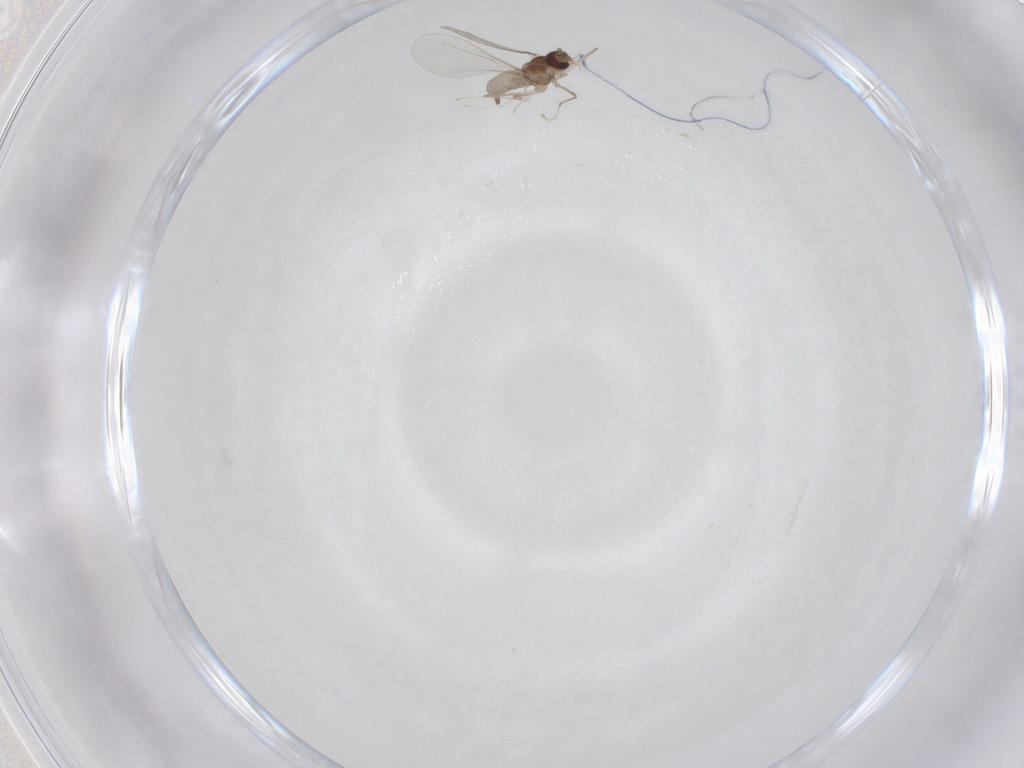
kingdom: Animalia
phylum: Arthropoda
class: Insecta
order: Diptera
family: Cecidomyiidae
